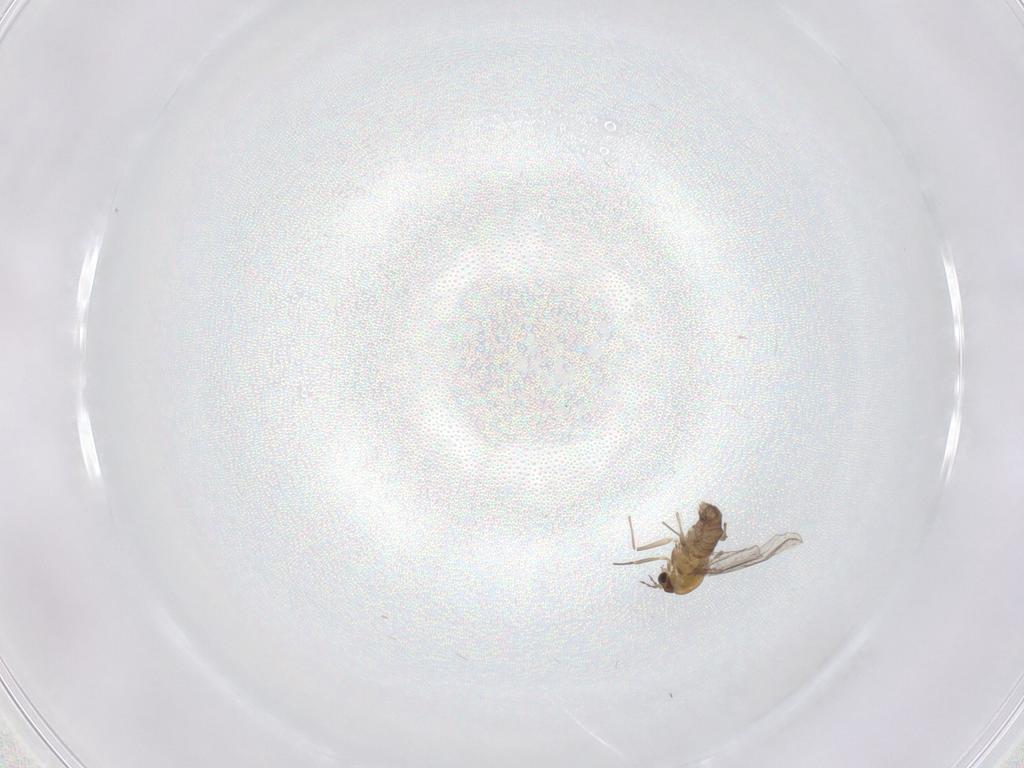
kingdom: Animalia
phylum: Arthropoda
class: Insecta
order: Diptera
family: Chironomidae
